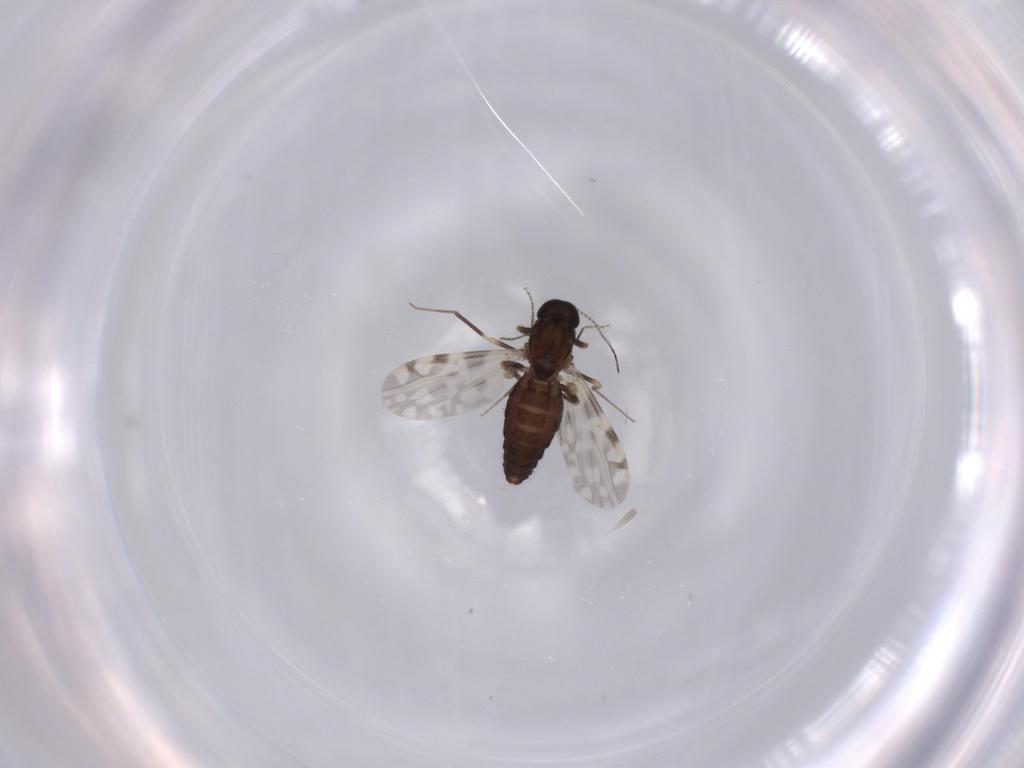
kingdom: Animalia
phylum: Arthropoda
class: Insecta
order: Diptera
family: Ceratopogonidae
